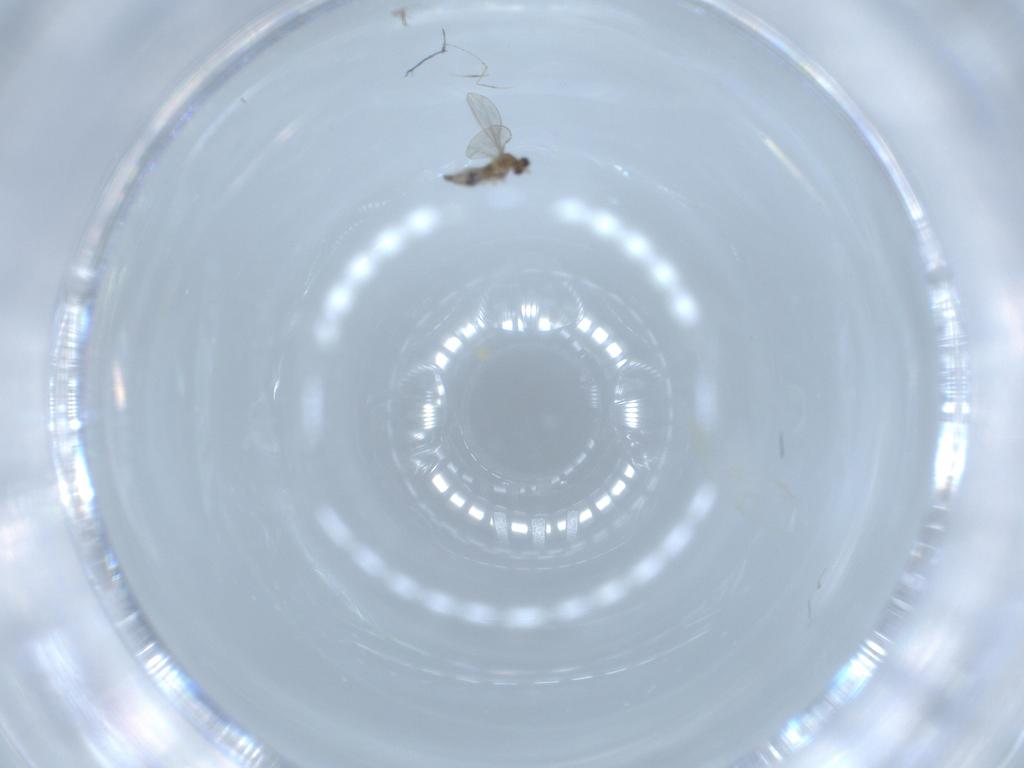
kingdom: Animalia
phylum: Arthropoda
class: Insecta
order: Diptera
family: Cecidomyiidae
